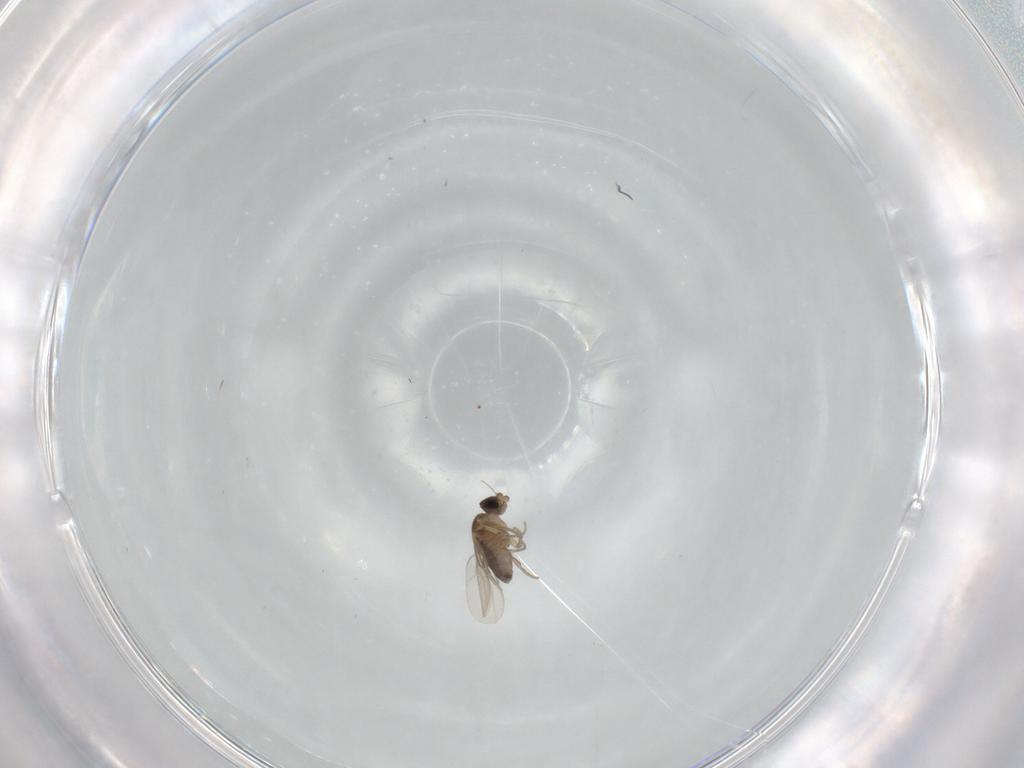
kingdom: Animalia
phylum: Arthropoda
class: Insecta
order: Diptera
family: Phoridae
